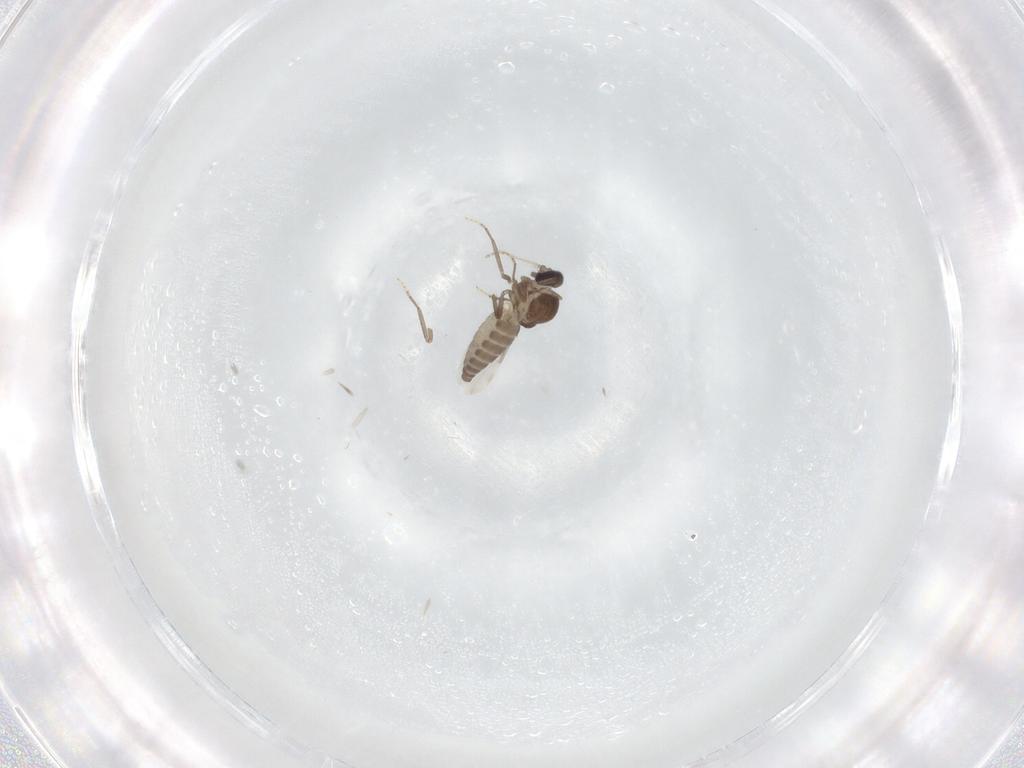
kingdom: Animalia
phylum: Arthropoda
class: Insecta
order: Diptera
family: Ceratopogonidae
